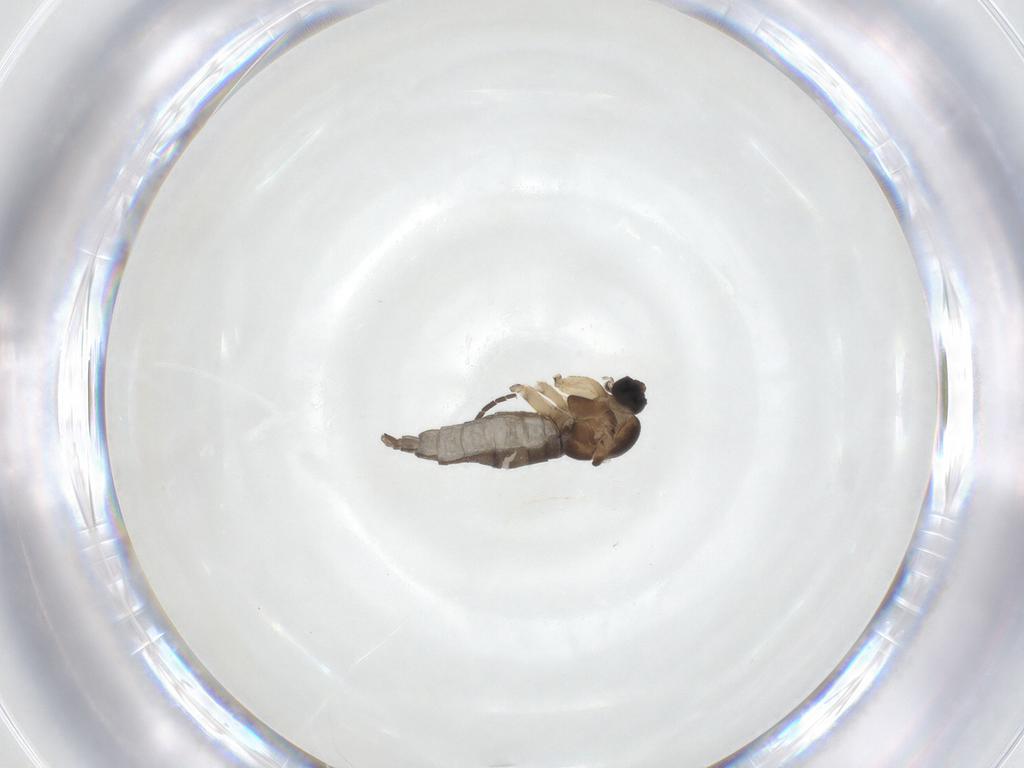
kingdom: Animalia
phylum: Arthropoda
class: Insecta
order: Diptera
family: Sciaridae
